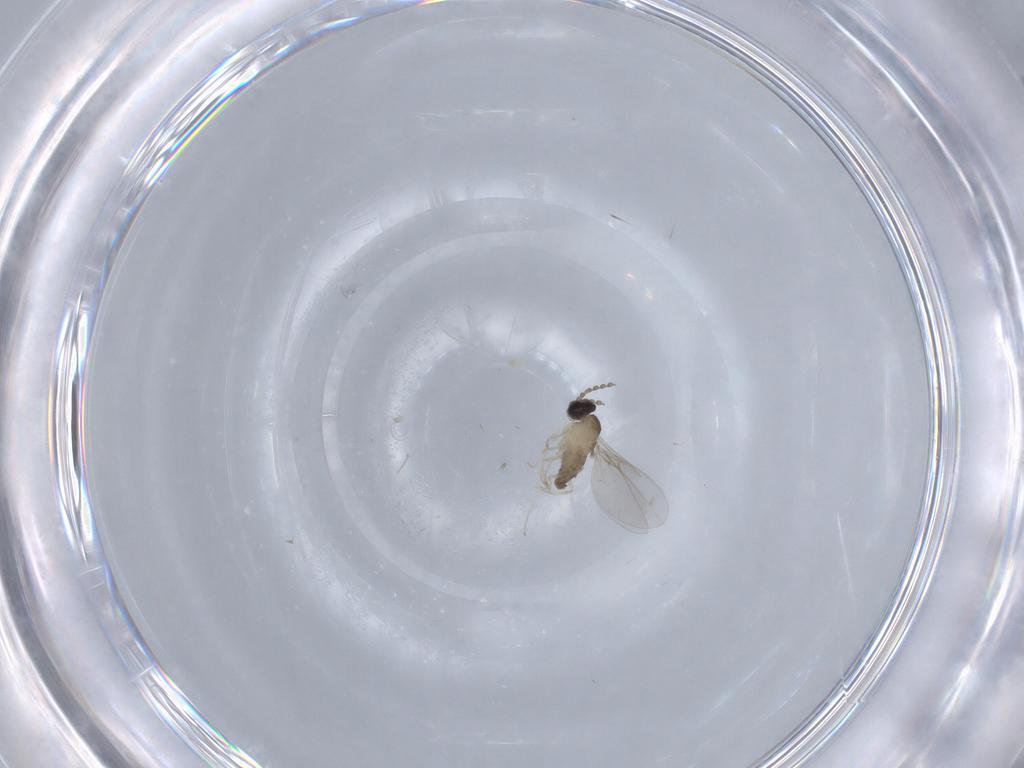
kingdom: Animalia
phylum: Arthropoda
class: Insecta
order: Diptera
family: Cecidomyiidae
